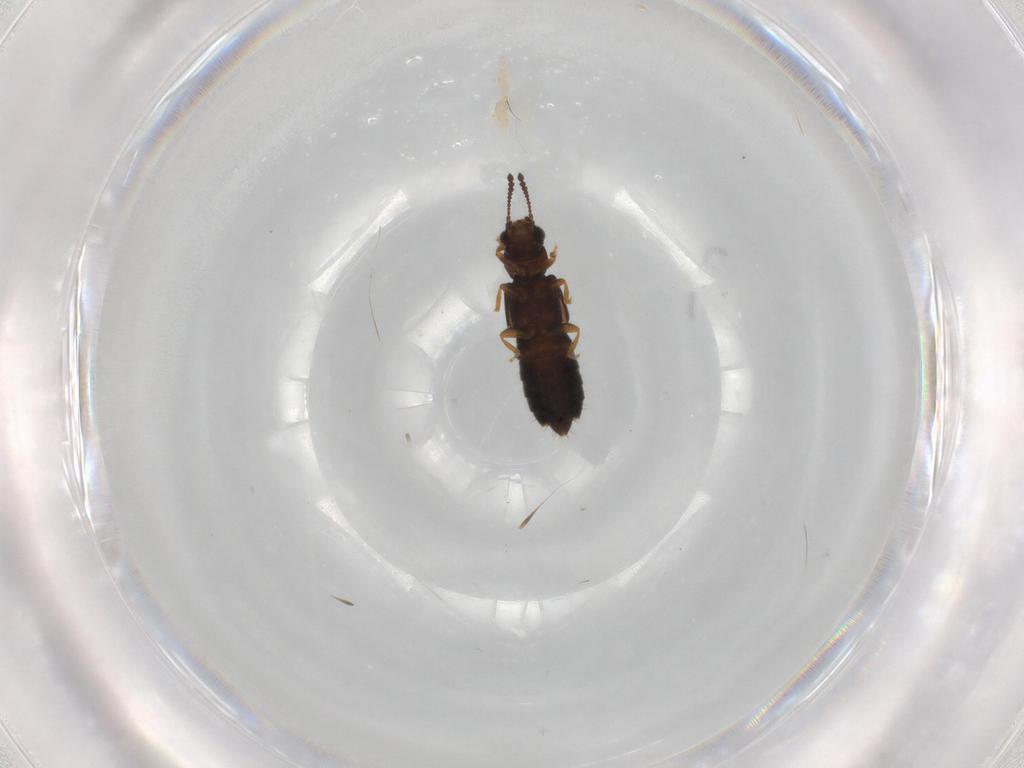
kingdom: Animalia
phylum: Arthropoda
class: Insecta
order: Coleoptera
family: Staphylinidae
